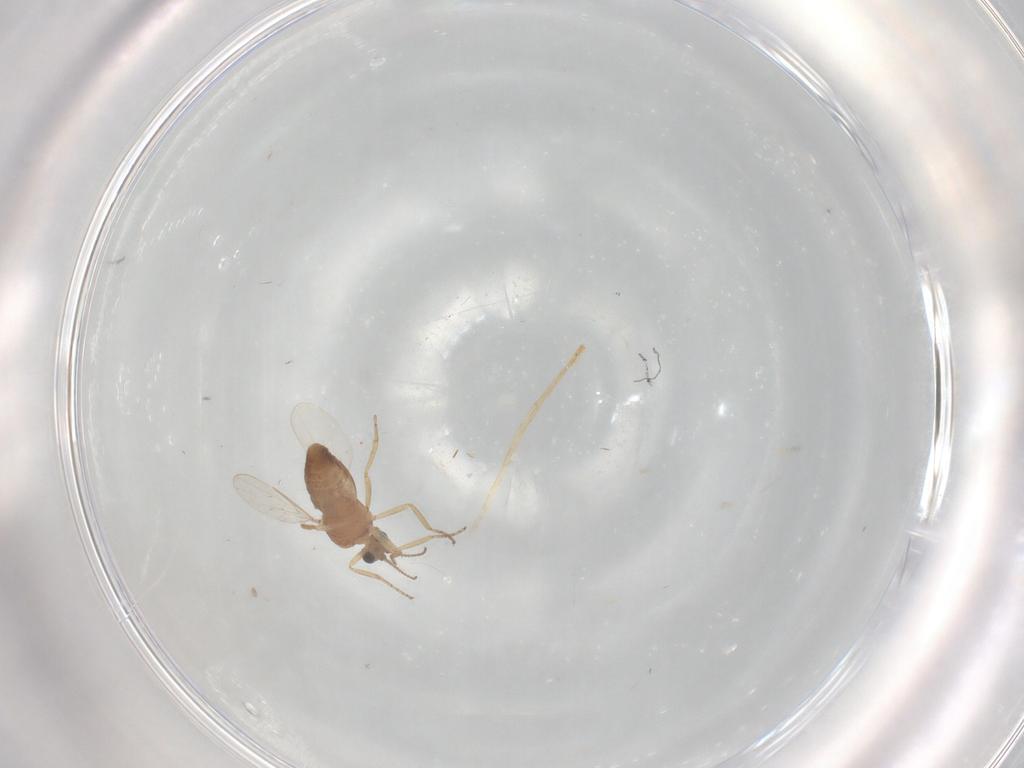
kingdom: Animalia
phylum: Arthropoda
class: Insecta
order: Diptera
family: Ceratopogonidae
